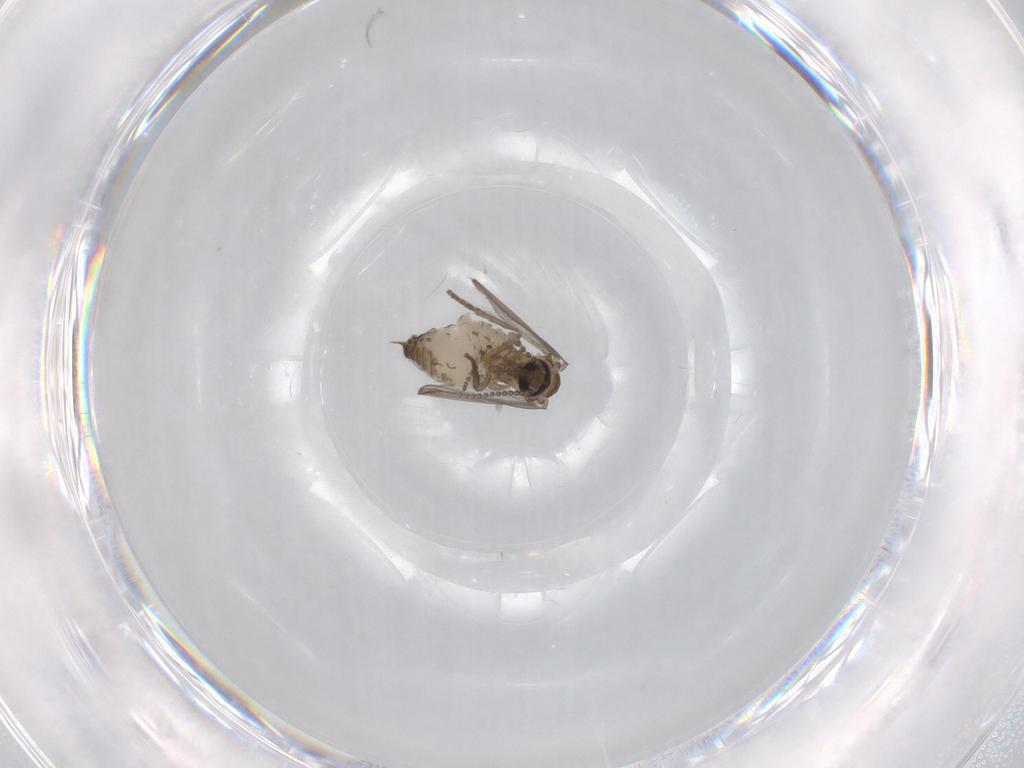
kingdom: Animalia
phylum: Arthropoda
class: Insecta
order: Diptera
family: Psychodidae
